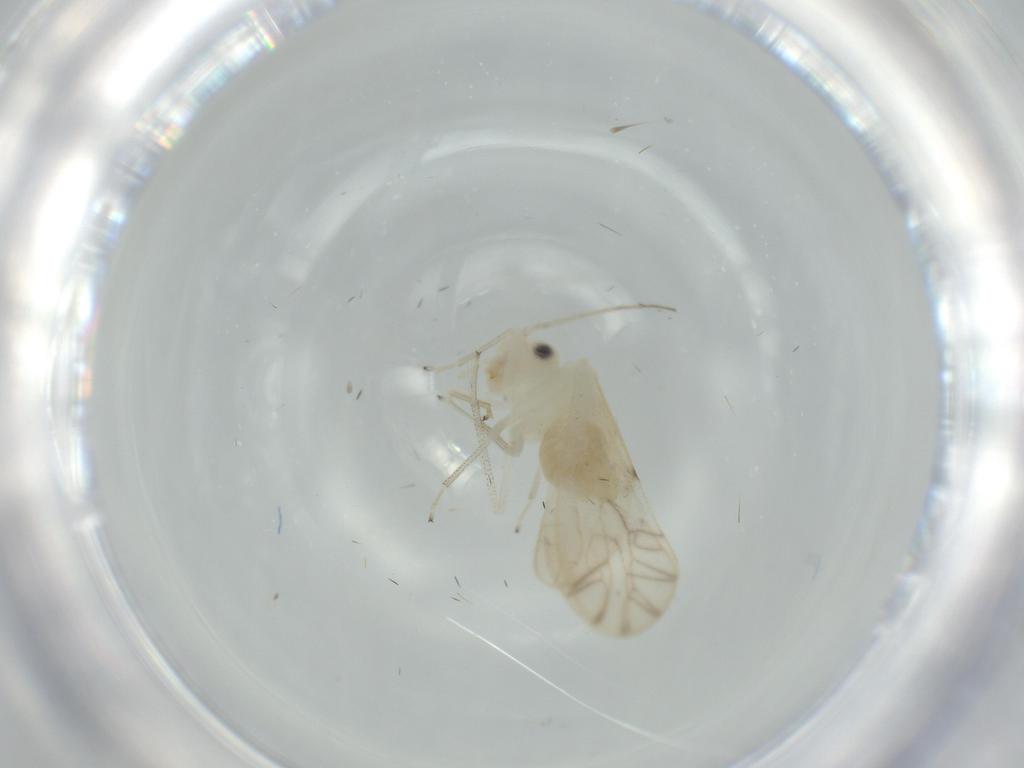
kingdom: Animalia
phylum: Arthropoda
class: Insecta
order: Psocodea
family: Caeciliusidae
